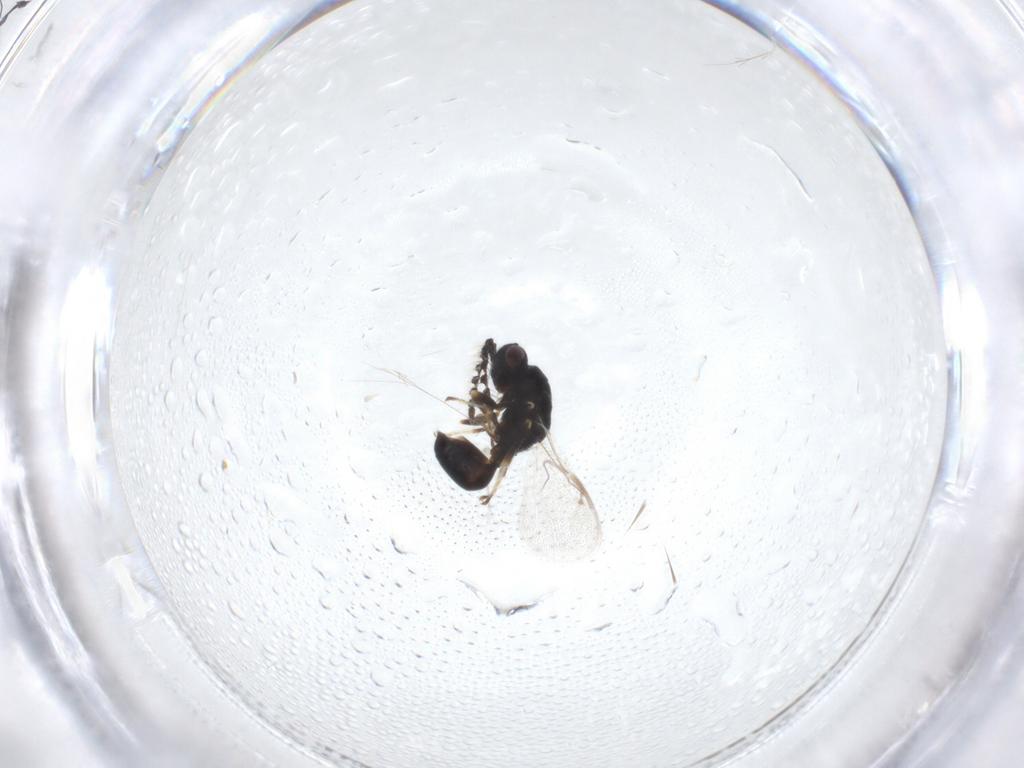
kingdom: Animalia
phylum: Arthropoda
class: Insecta
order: Hymenoptera
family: Eurytomidae
